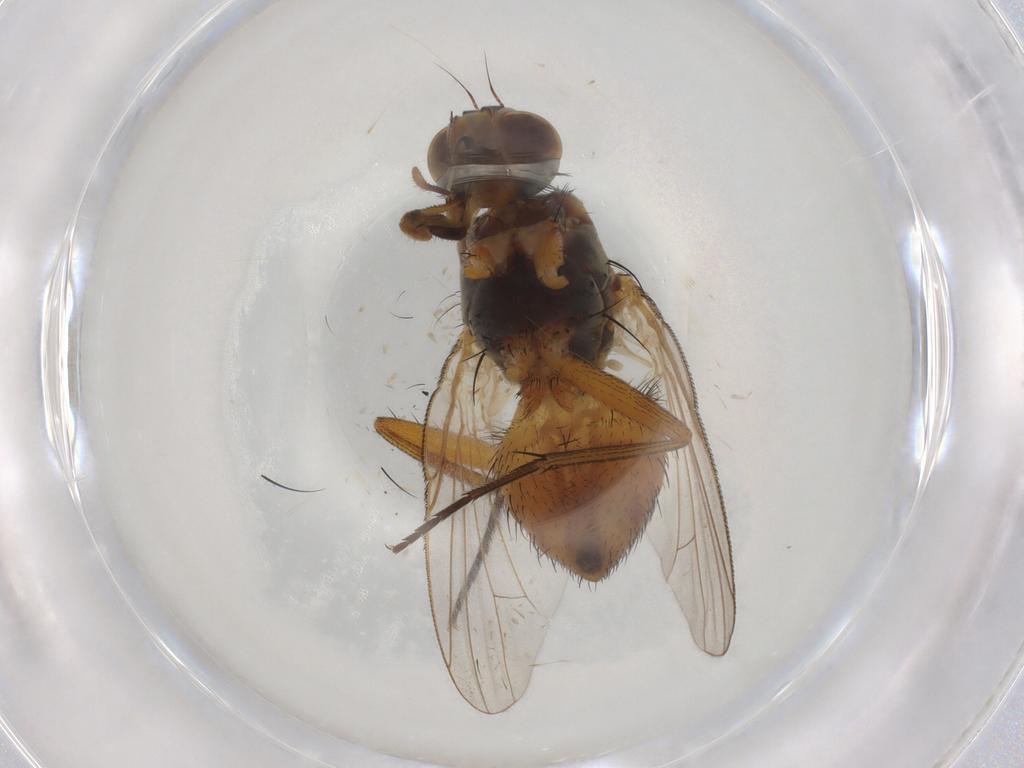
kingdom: Animalia
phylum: Arthropoda
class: Insecta
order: Diptera
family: Muscidae
